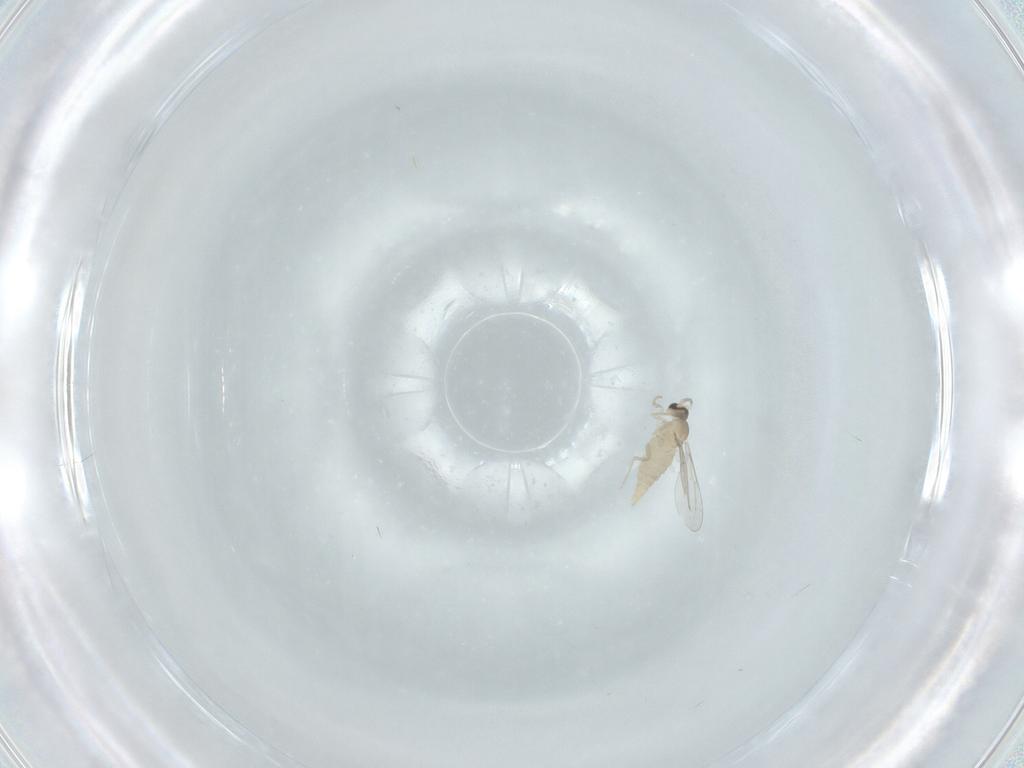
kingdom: Animalia
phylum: Arthropoda
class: Insecta
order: Diptera
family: Cecidomyiidae
